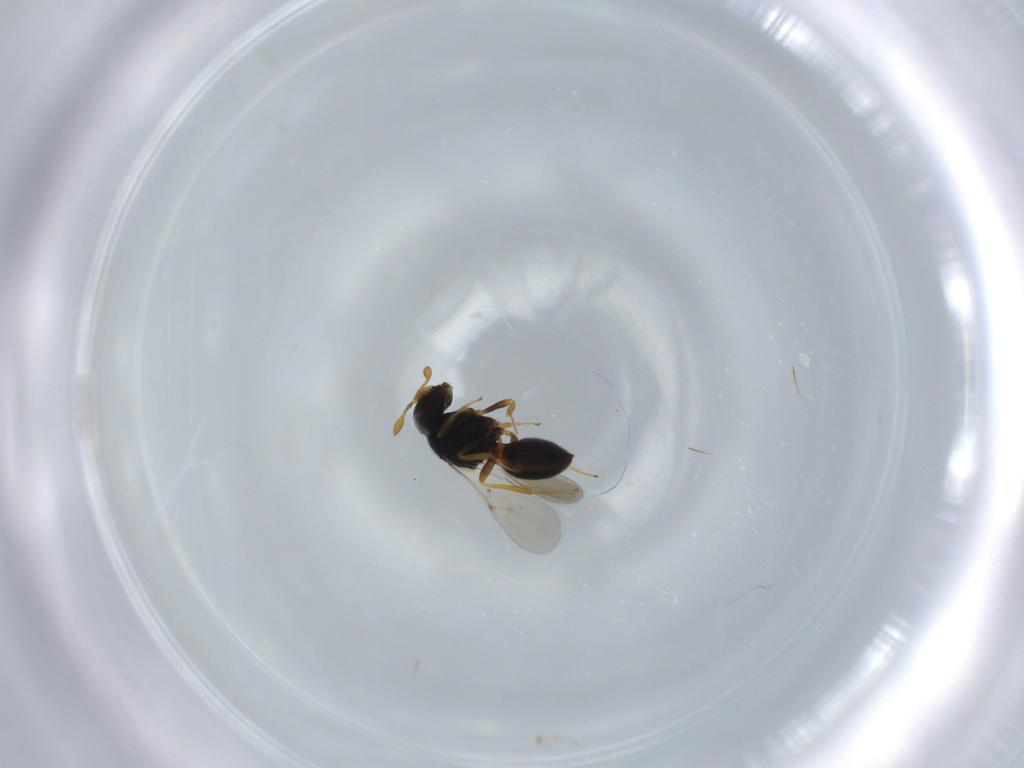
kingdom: Animalia
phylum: Arthropoda
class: Insecta
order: Hymenoptera
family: Scelionidae
